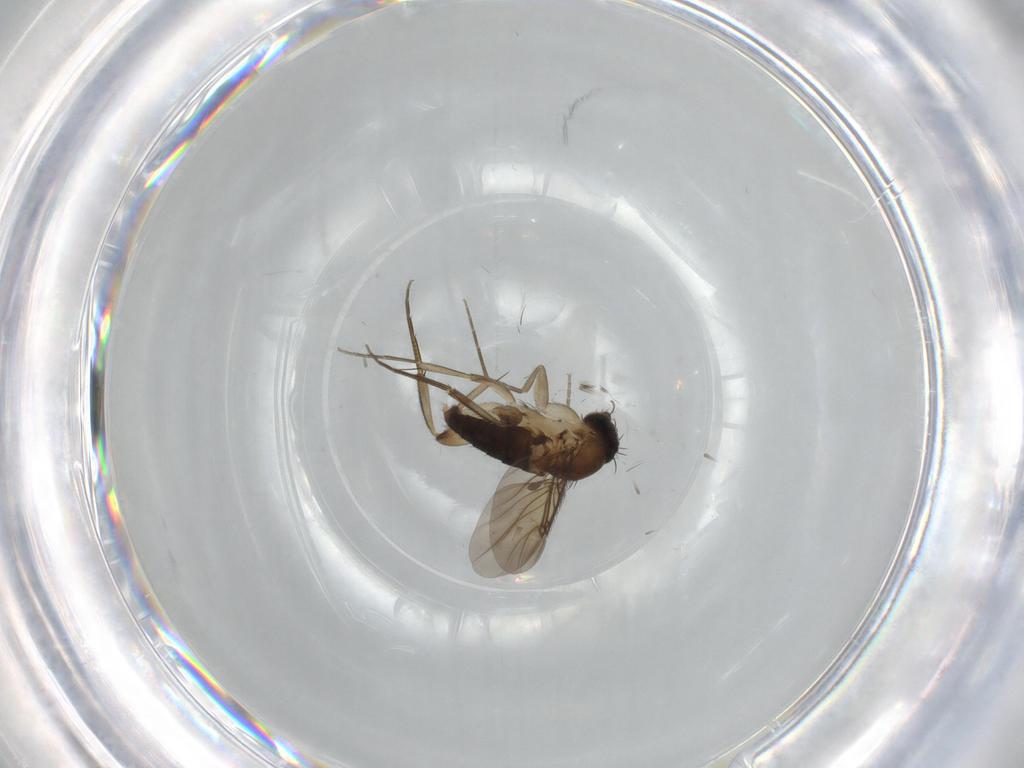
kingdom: Animalia
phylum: Arthropoda
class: Insecta
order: Diptera
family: Phoridae
